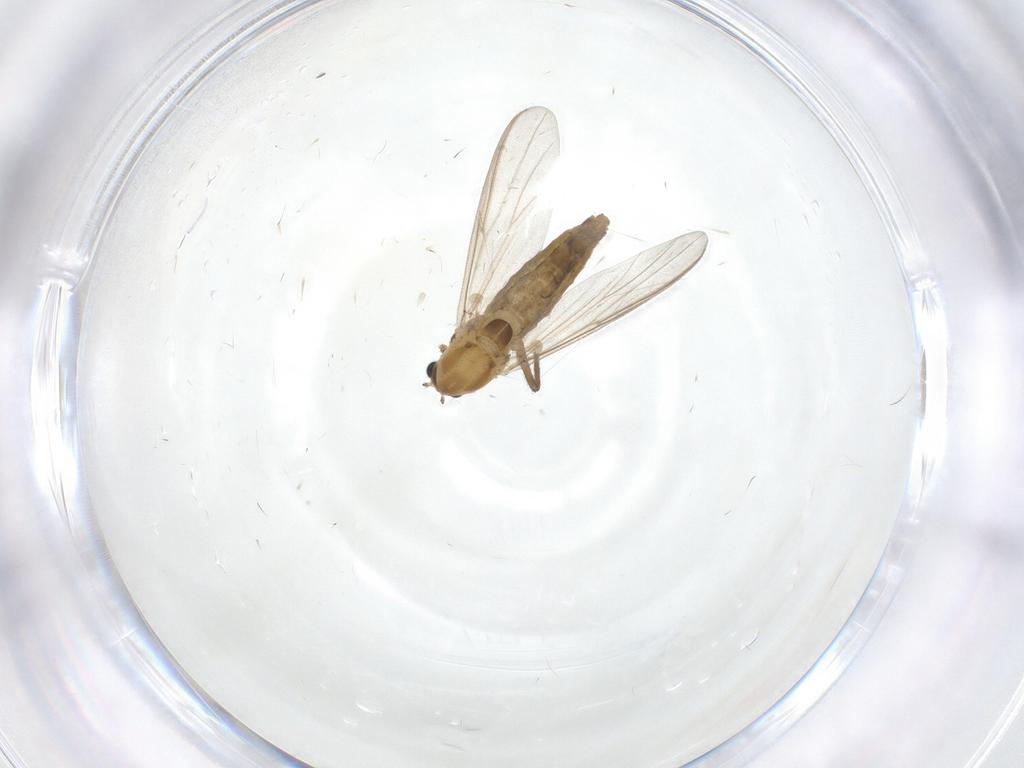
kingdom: Animalia
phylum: Arthropoda
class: Insecta
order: Diptera
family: Chironomidae
